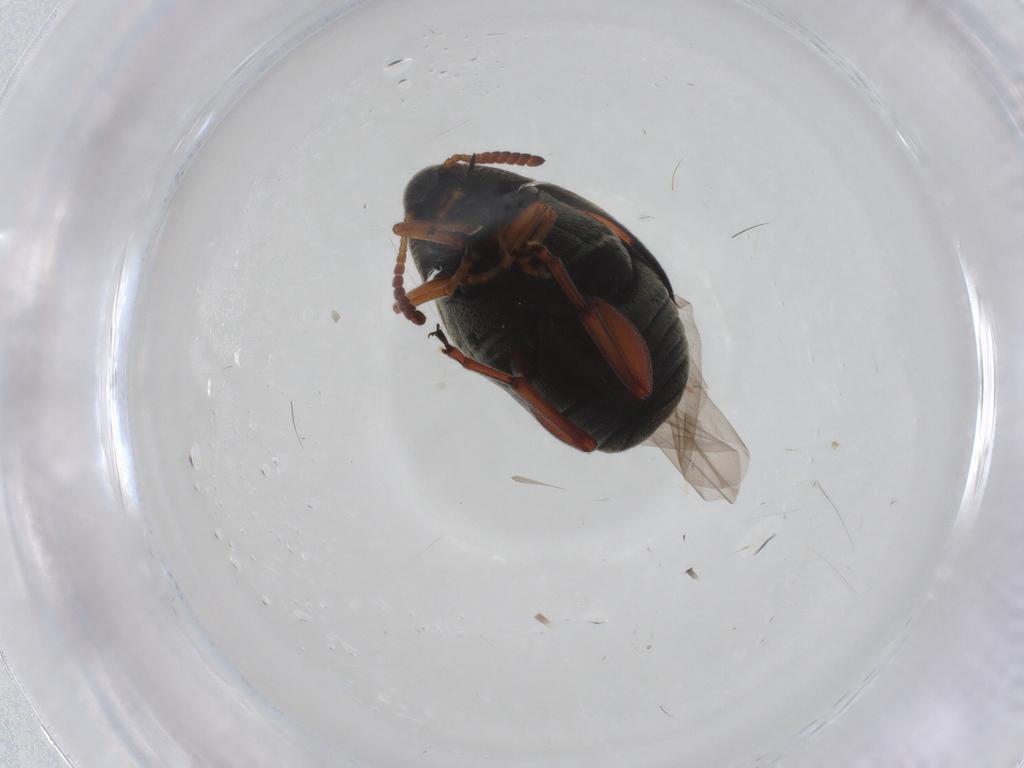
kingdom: Animalia
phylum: Arthropoda
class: Insecta
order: Coleoptera
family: Chrysomelidae
